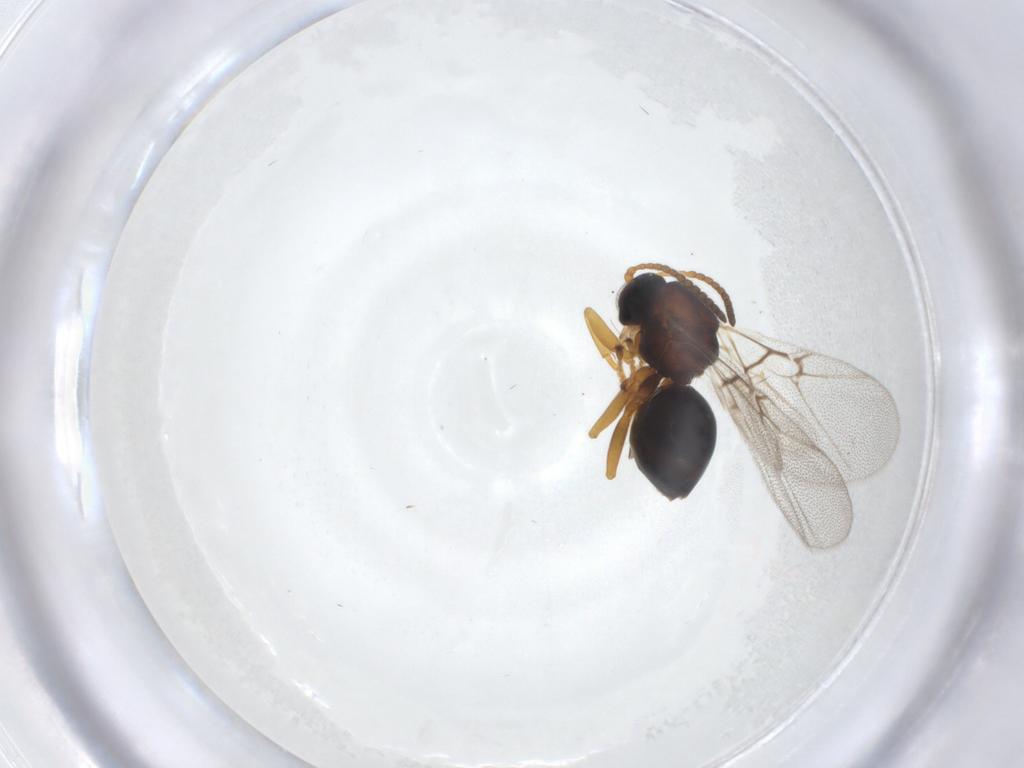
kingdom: Animalia
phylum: Arthropoda
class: Insecta
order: Hymenoptera
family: Cynipidae
